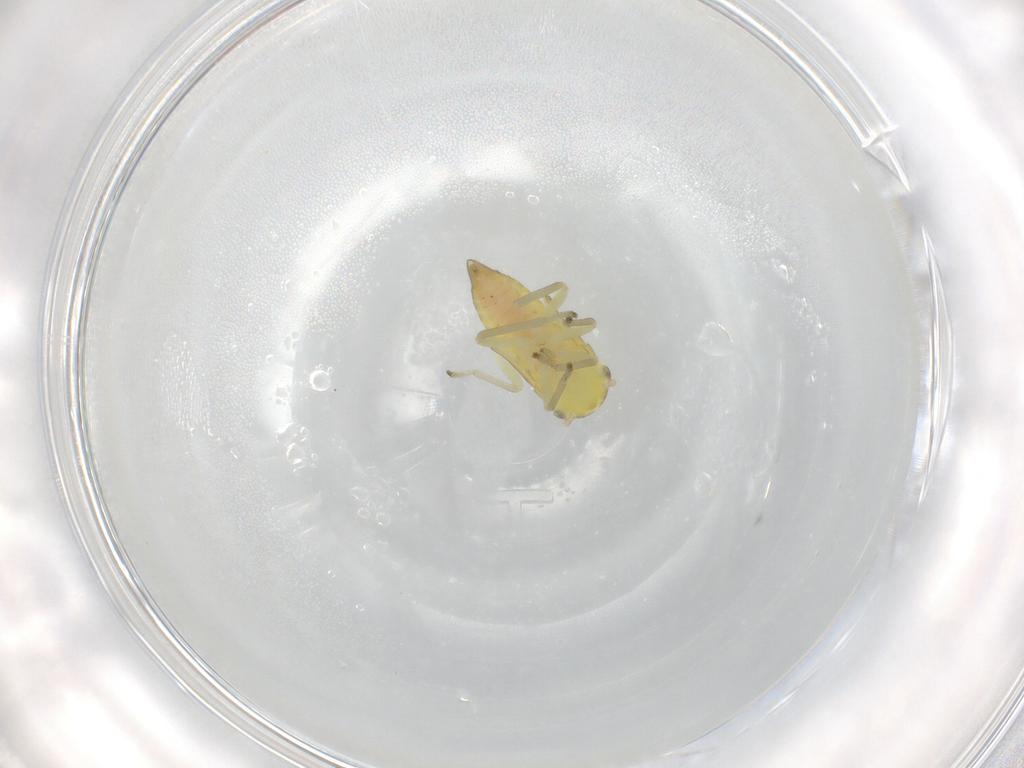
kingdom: Animalia
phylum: Arthropoda
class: Insecta
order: Hemiptera
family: Cicadellidae
